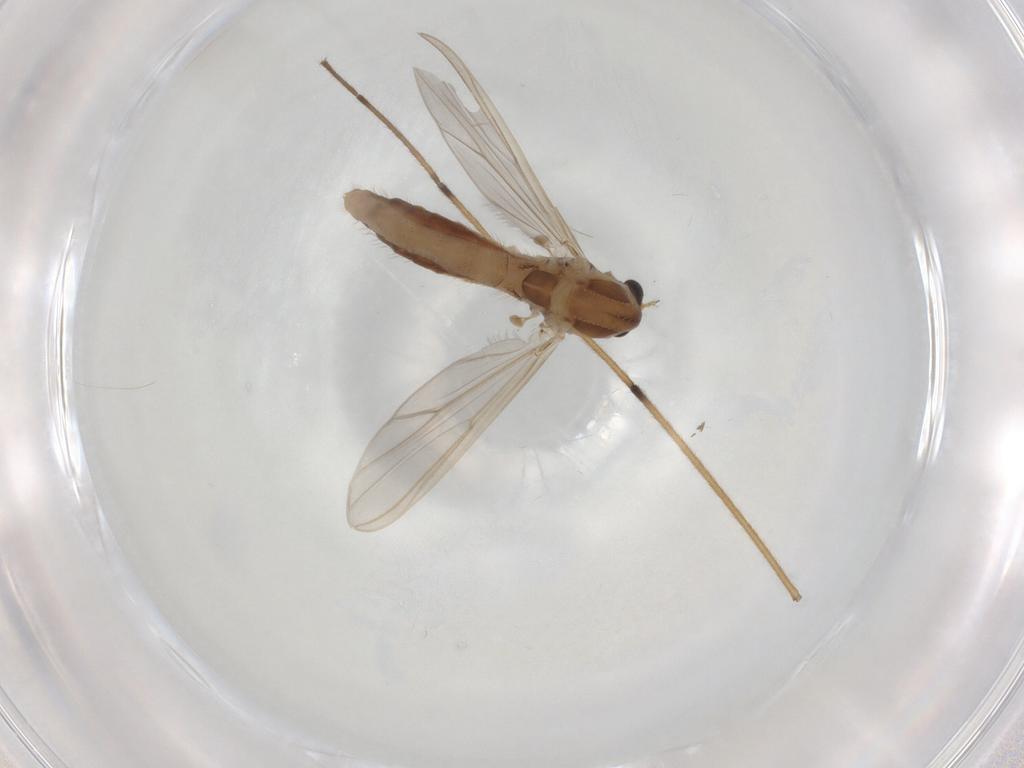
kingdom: Animalia
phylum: Arthropoda
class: Insecta
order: Diptera
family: Chironomidae
